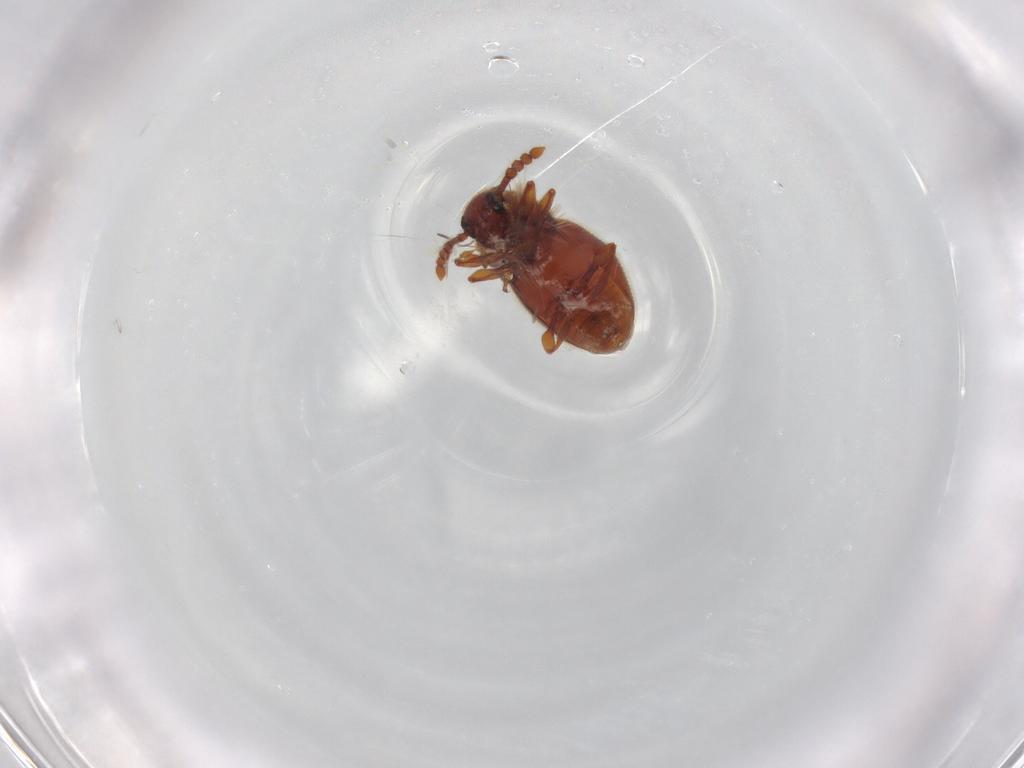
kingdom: Animalia
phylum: Arthropoda
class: Insecta
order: Coleoptera
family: Staphylinidae
